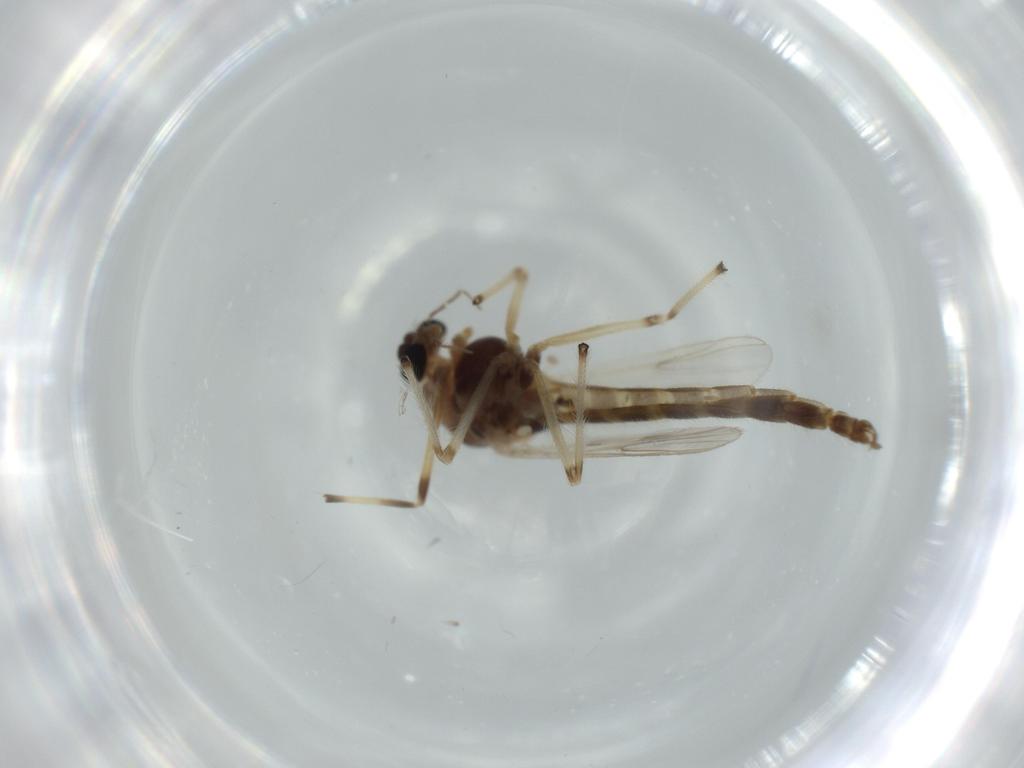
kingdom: Animalia
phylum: Arthropoda
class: Insecta
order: Diptera
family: Chironomidae
